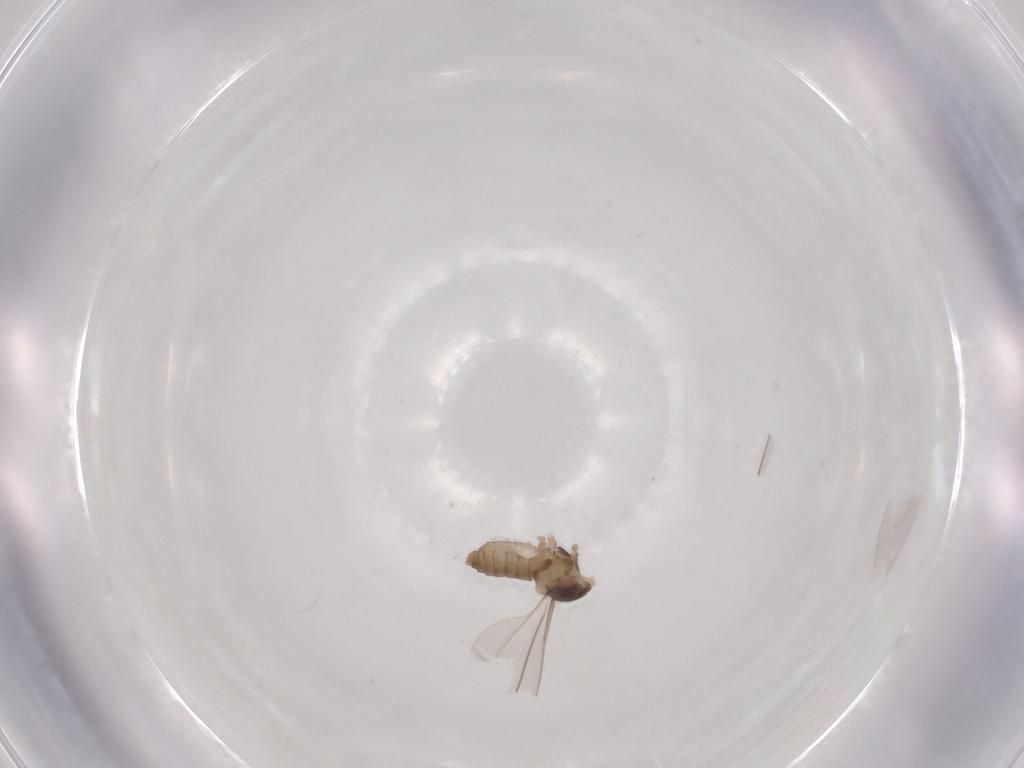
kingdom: Animalia
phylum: Arthropoda
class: Insecta
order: Diptera
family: Cecidomyiidae
